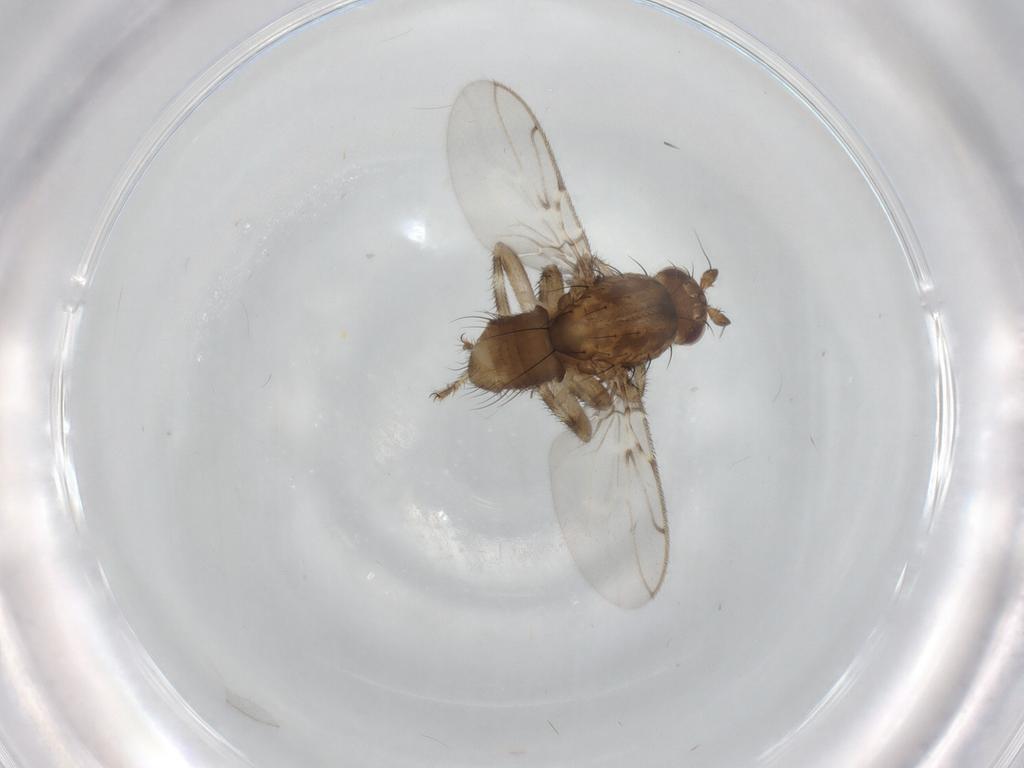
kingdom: Animalia
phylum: Arthropoda
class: Insecta
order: Diptera
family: Sphaeroceridae
